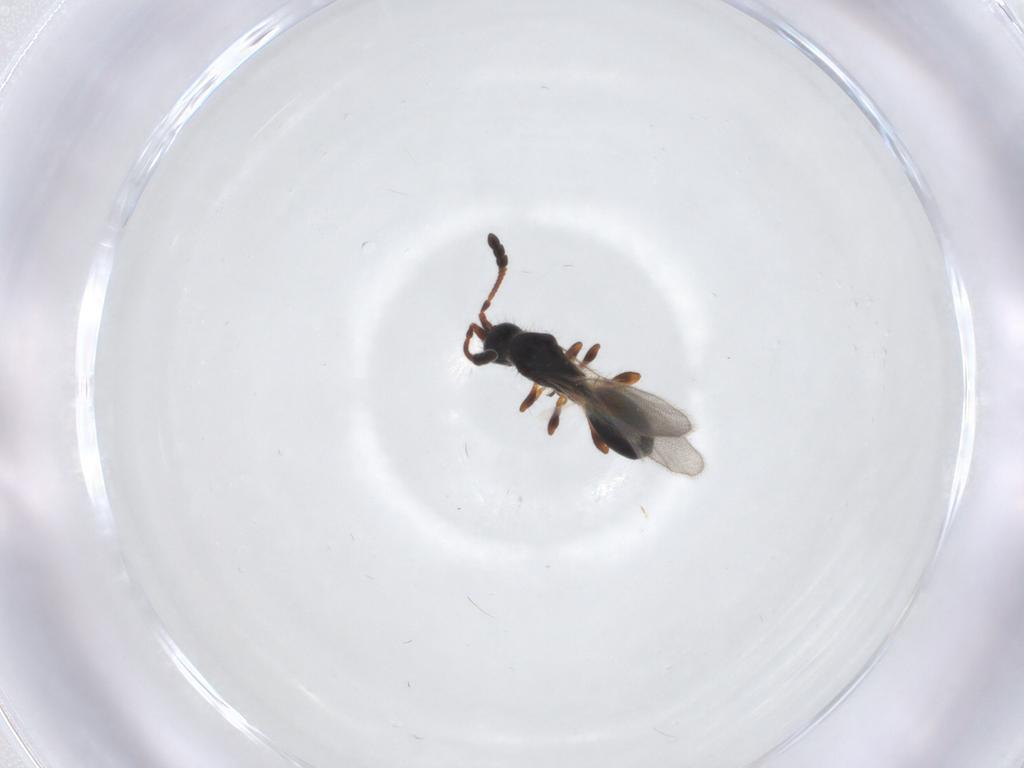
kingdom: Animalia
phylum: Arthropoda
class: Insecta
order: Hymenoptera
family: Diapriidae
